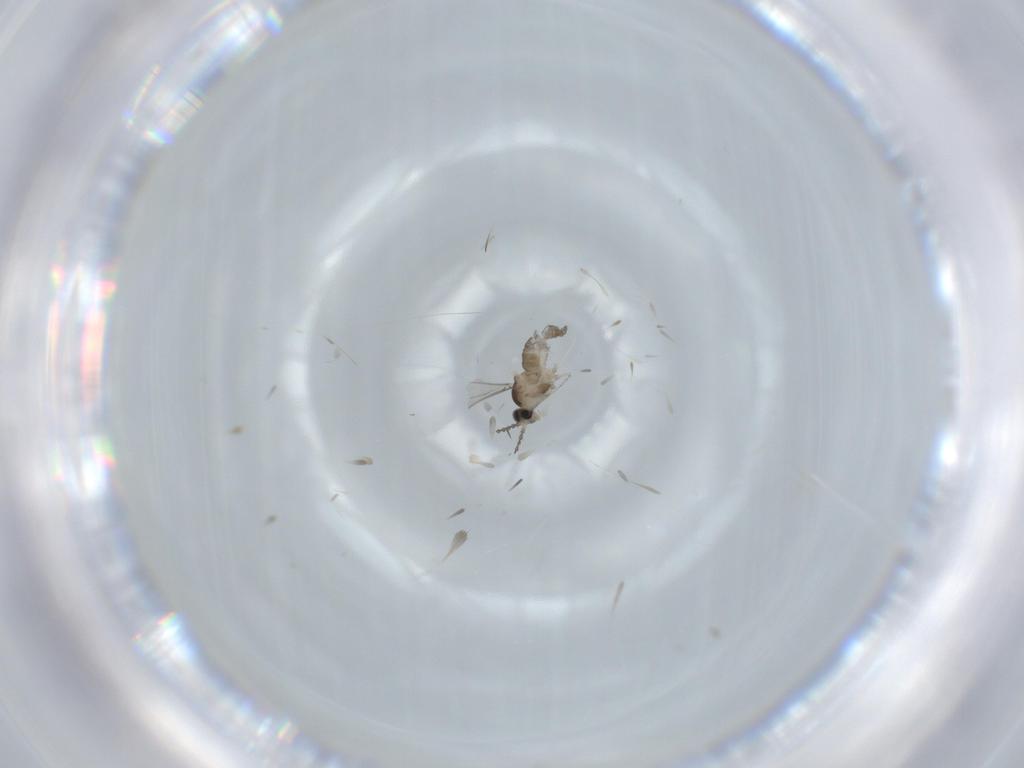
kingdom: Animalia
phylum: Arthropoda
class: Insecta
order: Diptera
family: Cecidomyiidae
